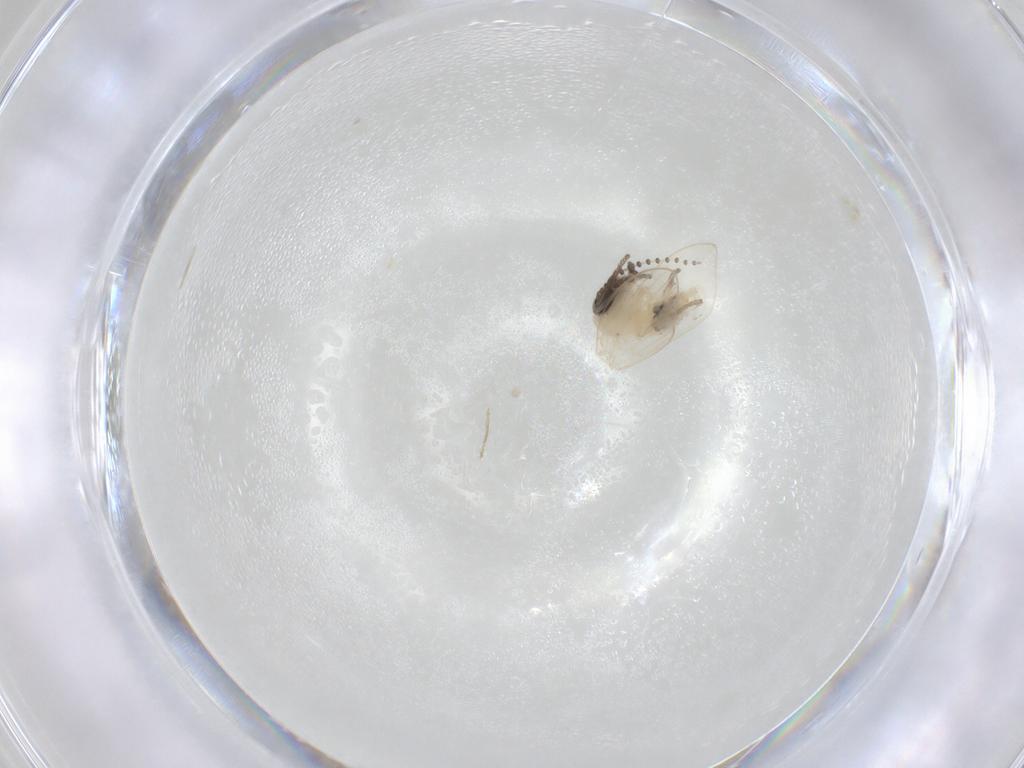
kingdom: Animalia
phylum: Arthropoda
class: Insecta
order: Diptera
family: Psychodidae
